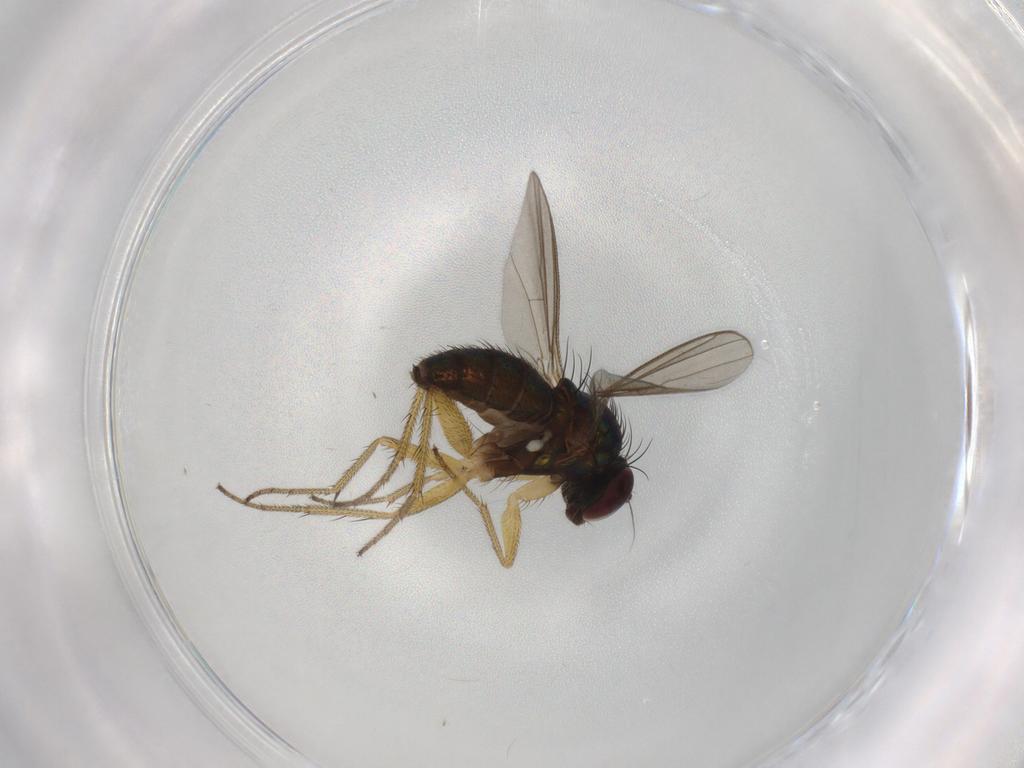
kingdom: Animalia
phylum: Arthropoda
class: Insecta
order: Diptera
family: Dolichopodidae
